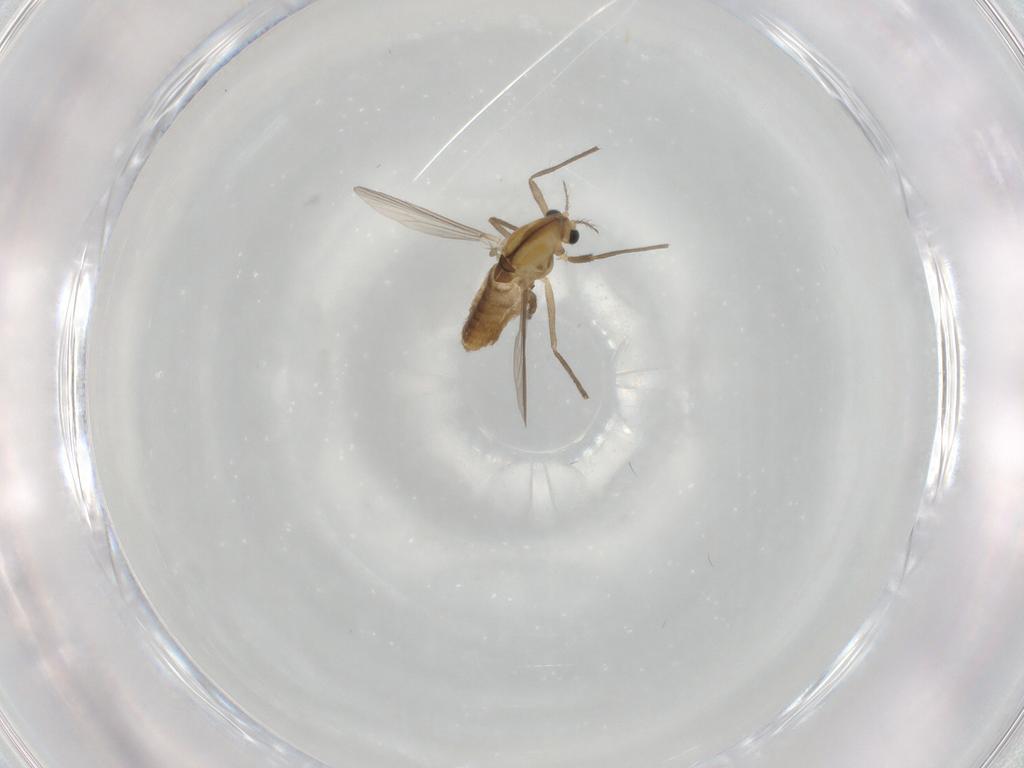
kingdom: Animalia
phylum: Arthropoda
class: Insecta
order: Diptera
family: Chironomidae
